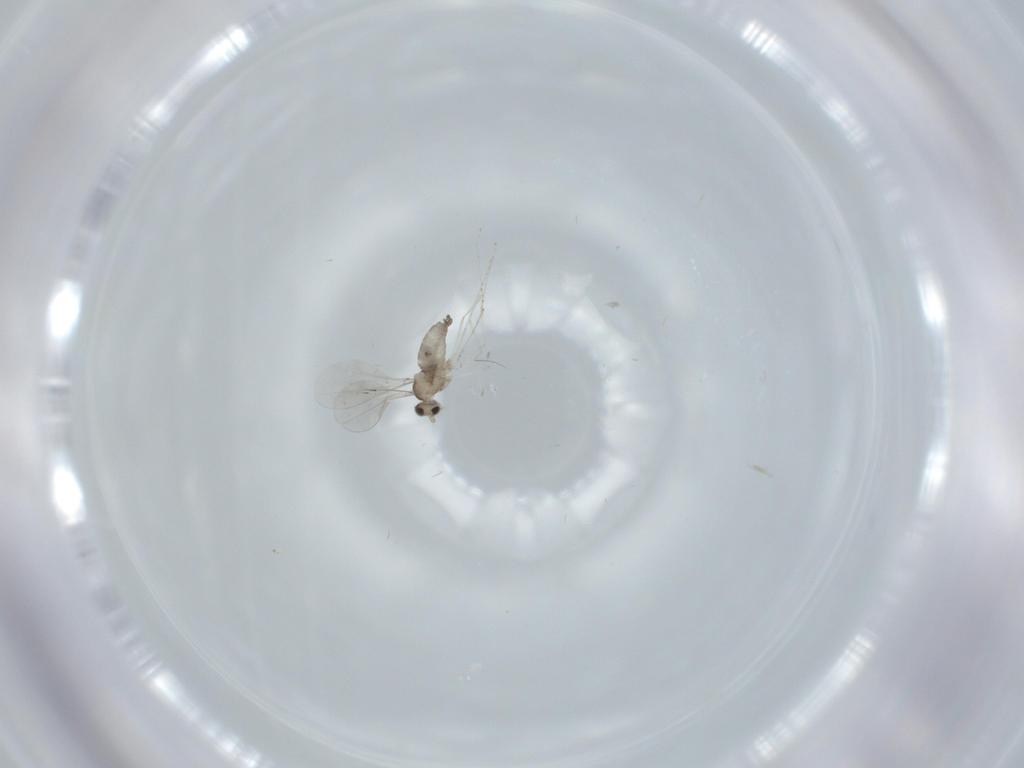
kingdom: Animalia
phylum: Arthropoda
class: Insecta
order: Diptera
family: Cecidomyiidae
